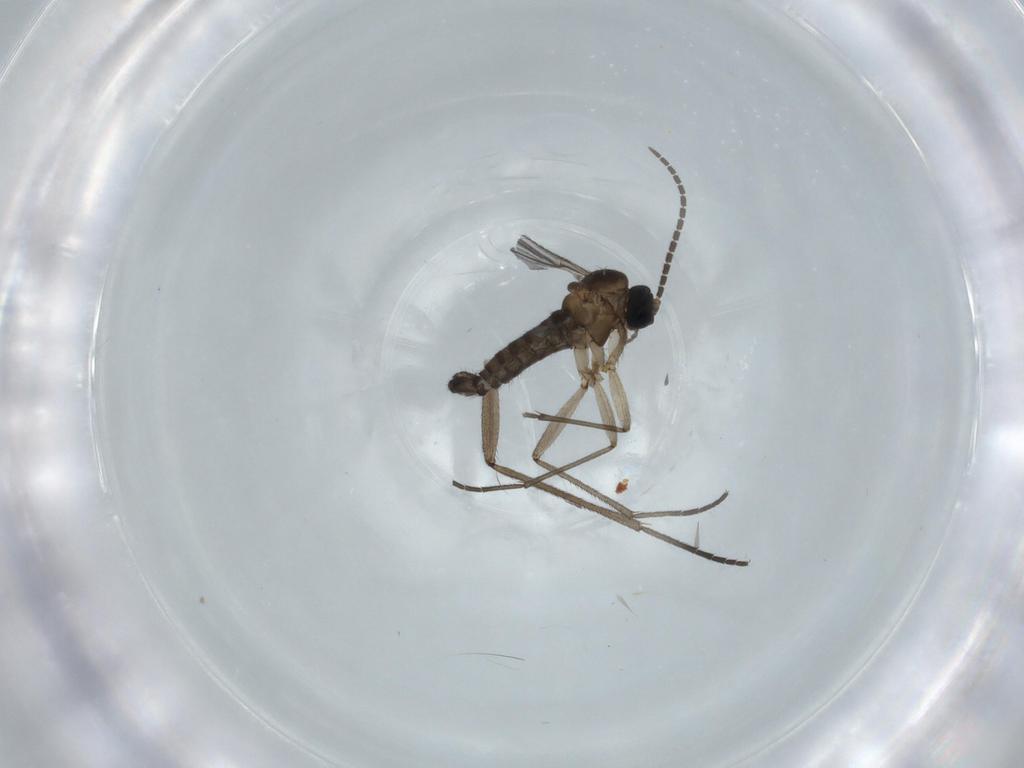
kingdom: Animalia
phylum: Arthropoda
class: Insecta
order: Diptera
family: Sciaridae
